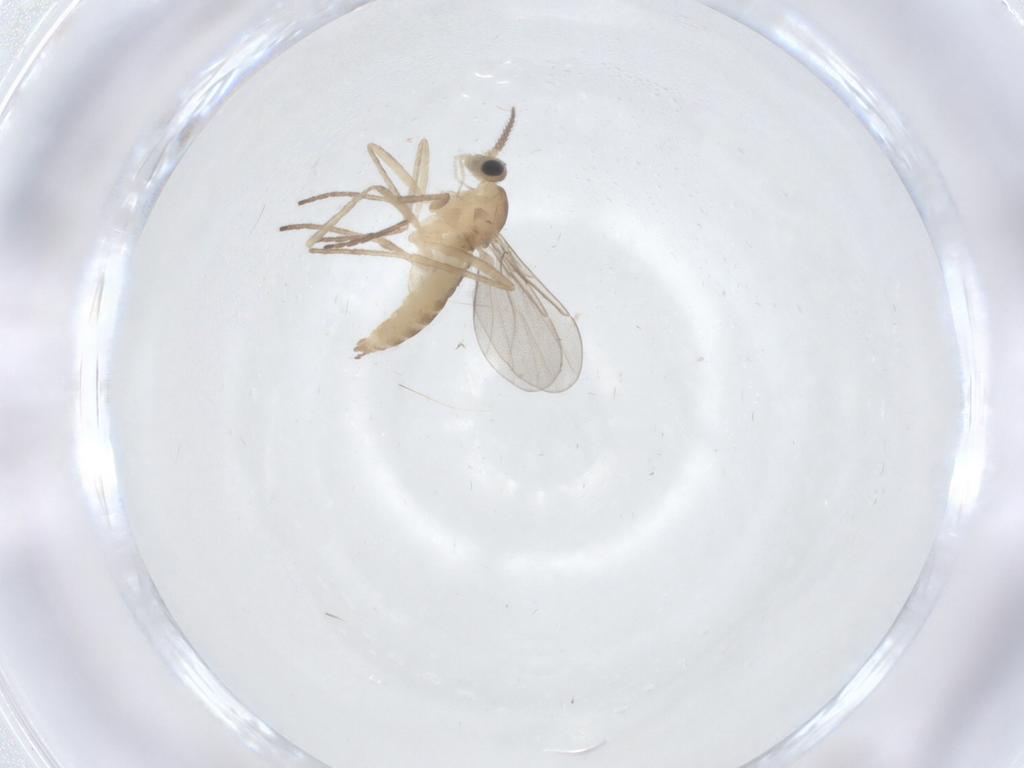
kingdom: Animalia
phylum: Arthropoda
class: Insecta
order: Diptera
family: Cecidomyiidae
